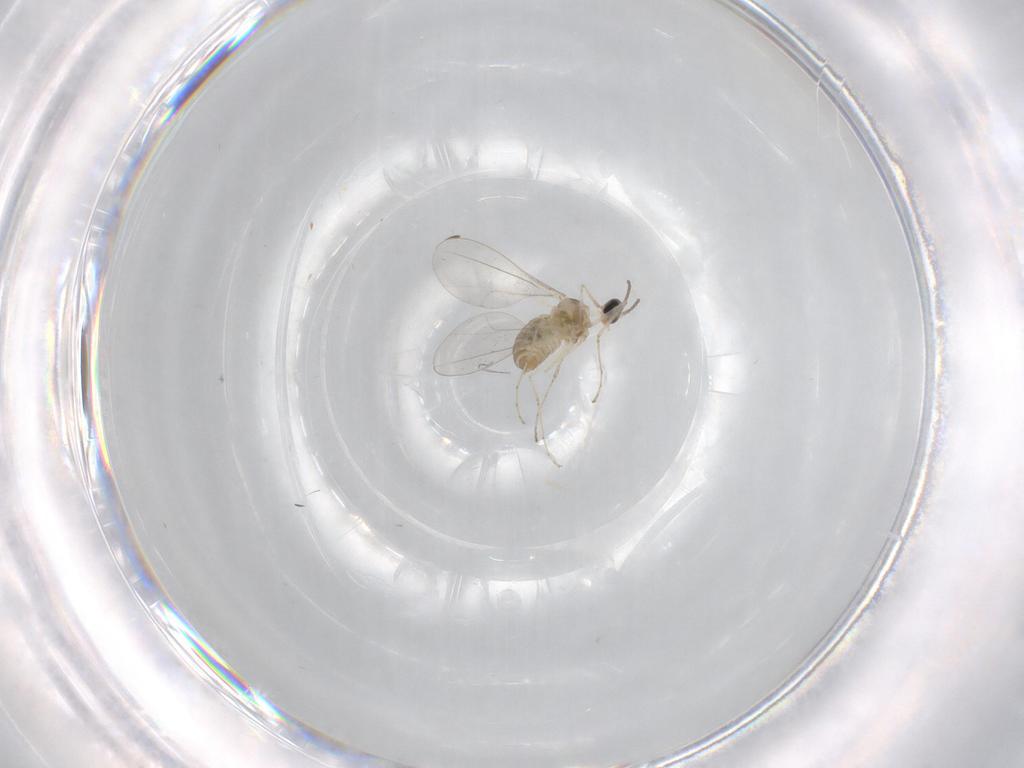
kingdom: Animalia
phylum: Arthropoda
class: Insecta
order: Diptera
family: Cecidomyiidae
